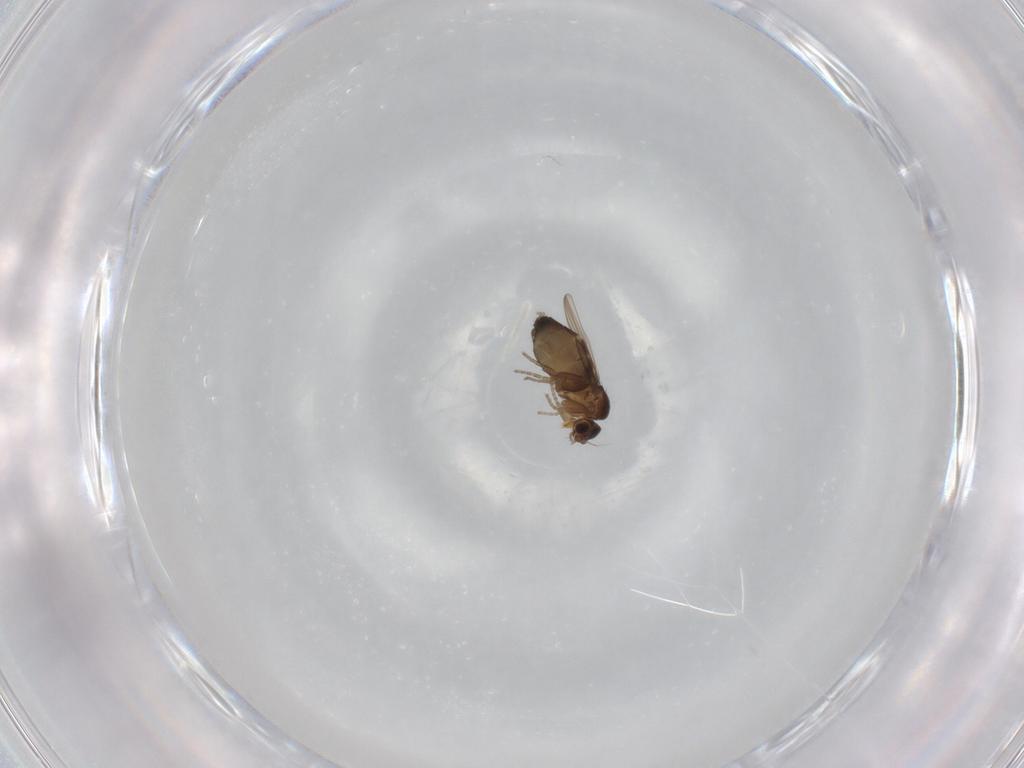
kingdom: Animalia
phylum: Arthropoda
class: Insecta
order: Diptera
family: Phoridae
